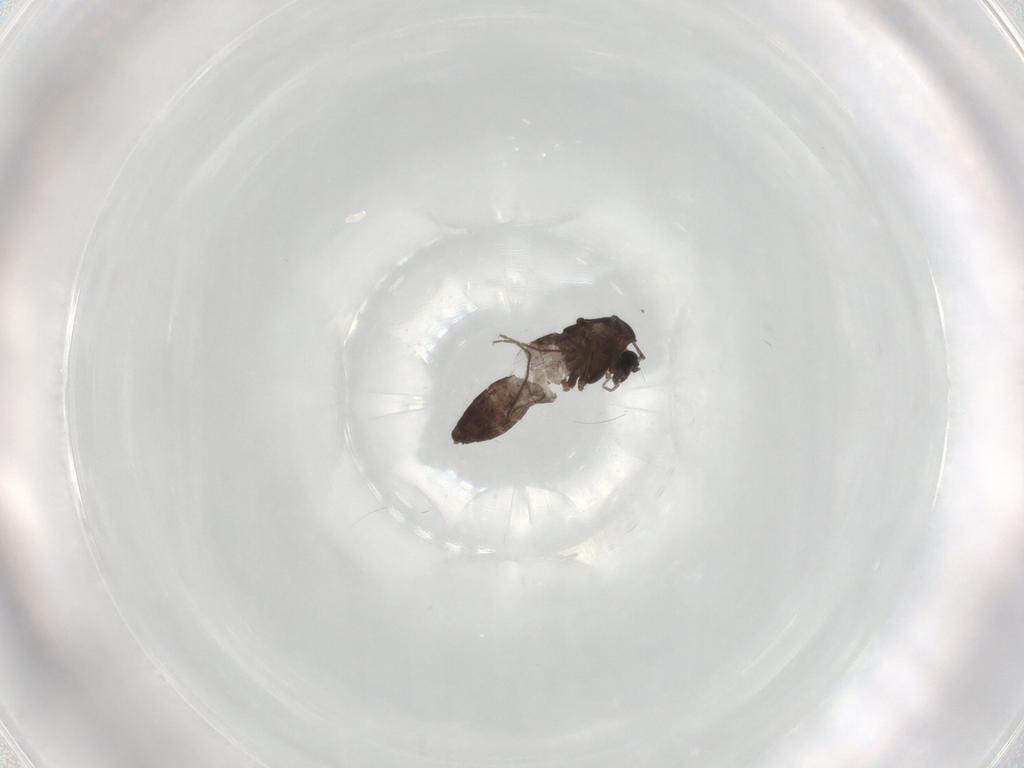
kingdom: Animalia
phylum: Arthropoda
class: Insecta
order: Diptera
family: Chironomidae
